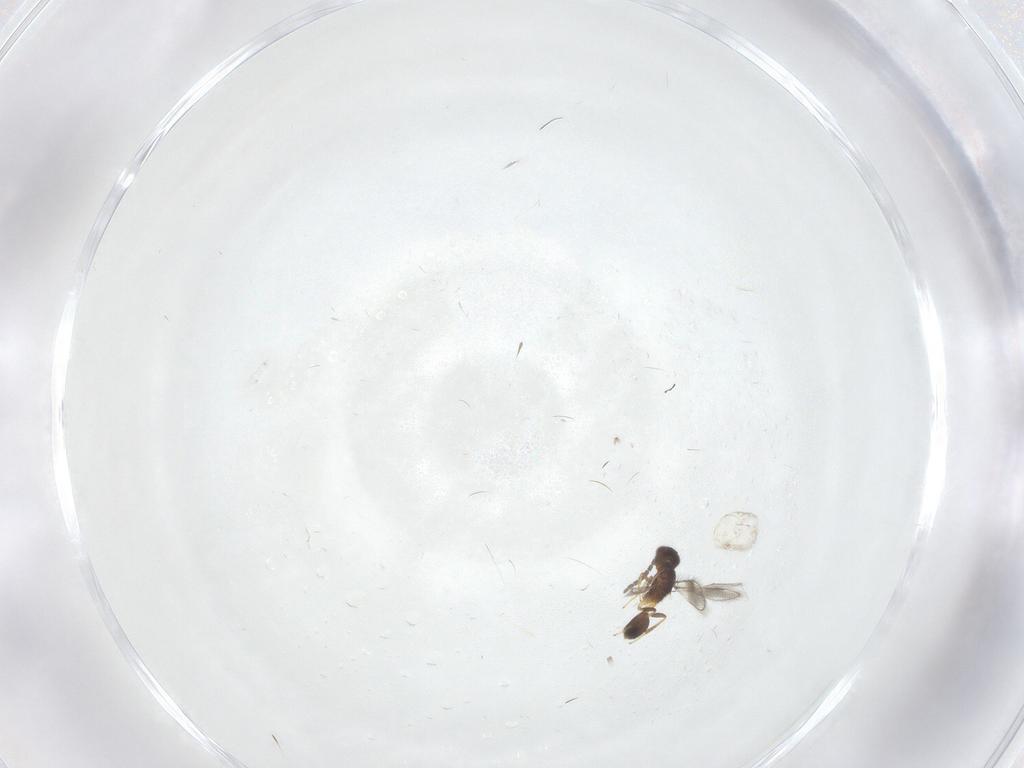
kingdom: Animalia
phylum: Arthropoda
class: Insecta
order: Hymenoptera
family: Pteromalidae
